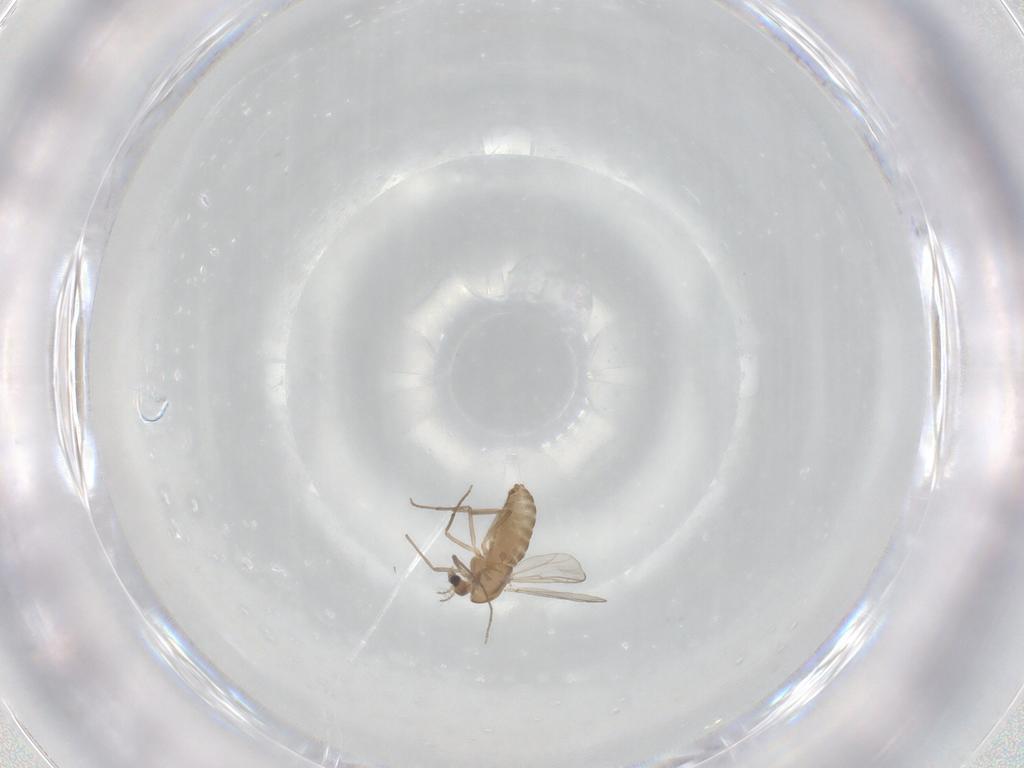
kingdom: Animalia
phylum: Arthropoda
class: Insecta
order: Diptera
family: Chironomidae
